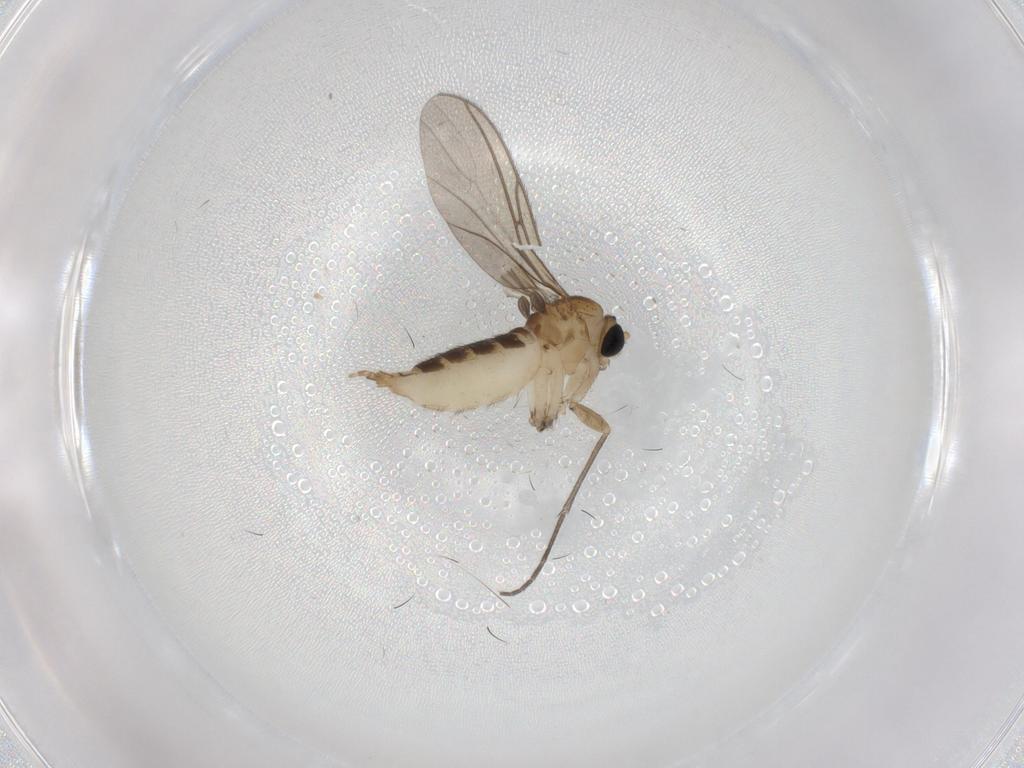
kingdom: Animalia
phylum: Arthropoda
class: Insecta
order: Diptera
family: Sciaridae
